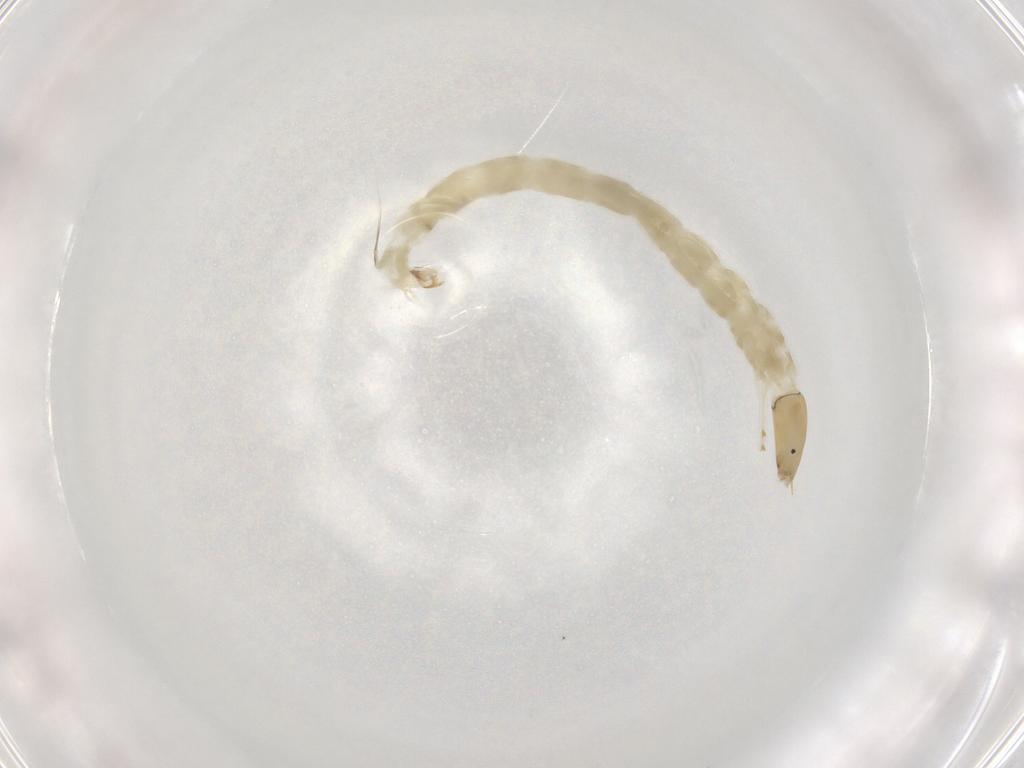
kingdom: Animalia
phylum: Arthropoda
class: Insecta
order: Diptera
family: Chironomidae
